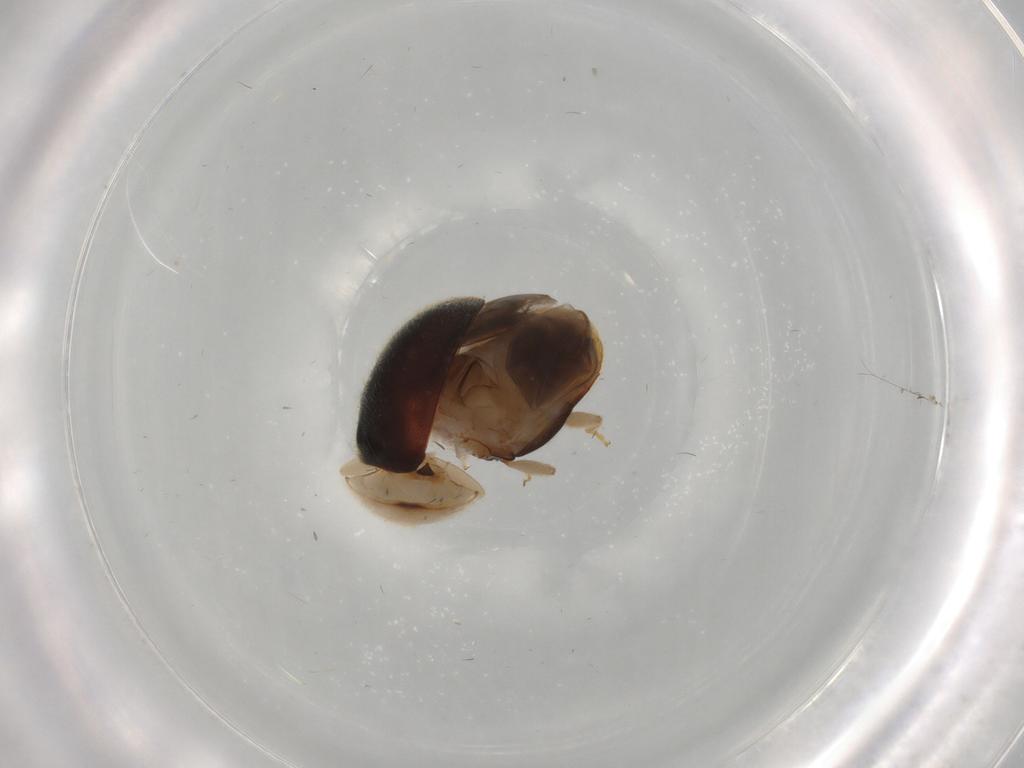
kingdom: Animalia
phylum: Arthropoda
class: Insecta
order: Coleoptera
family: Coccinellidae
